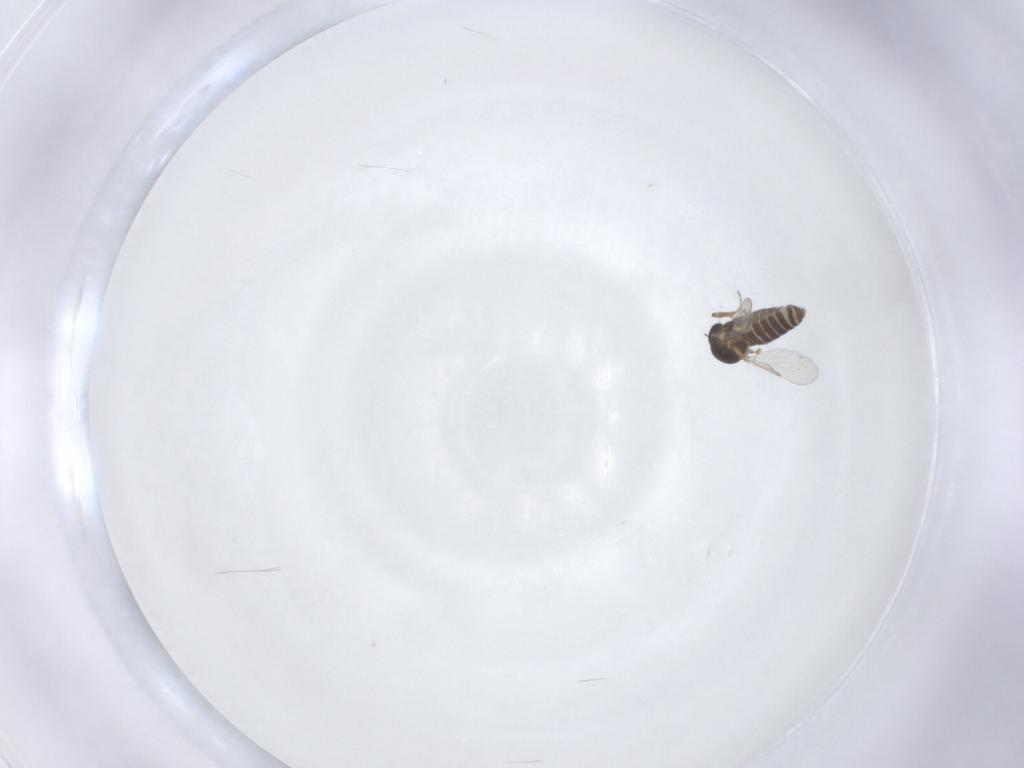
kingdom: Animalia
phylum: Arthropoda
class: Insecta
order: Diptera
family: Ceratopogonidae
